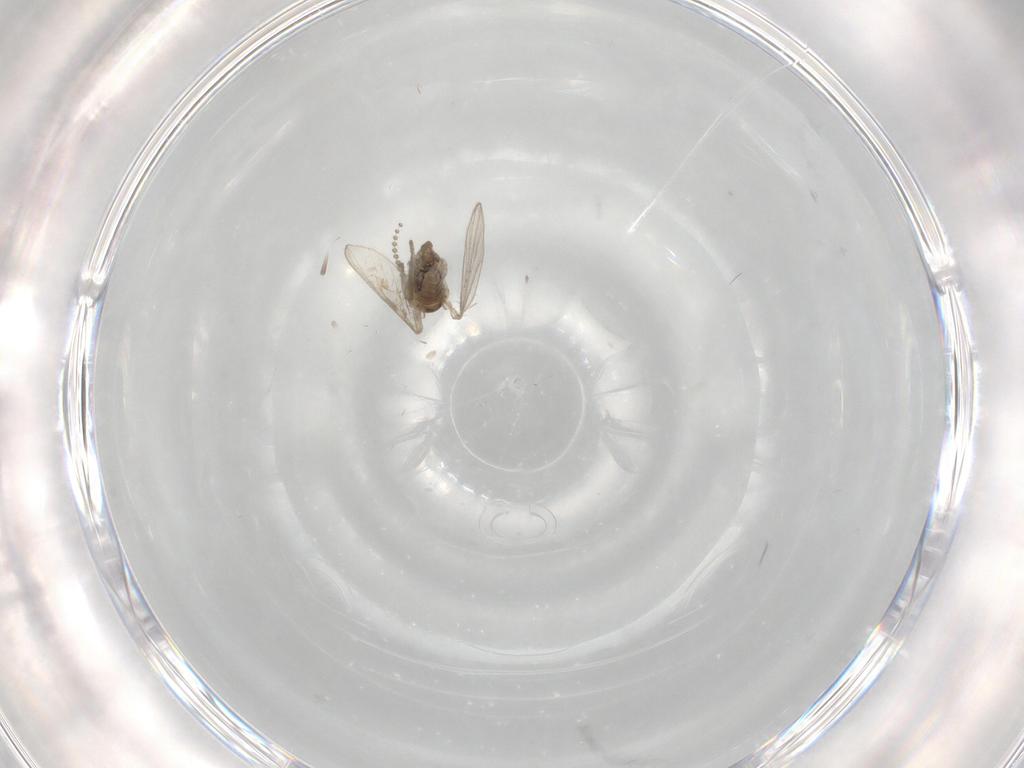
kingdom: Animalia
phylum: Arthropoda
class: Insecta
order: Diptera
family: Psychodidae
